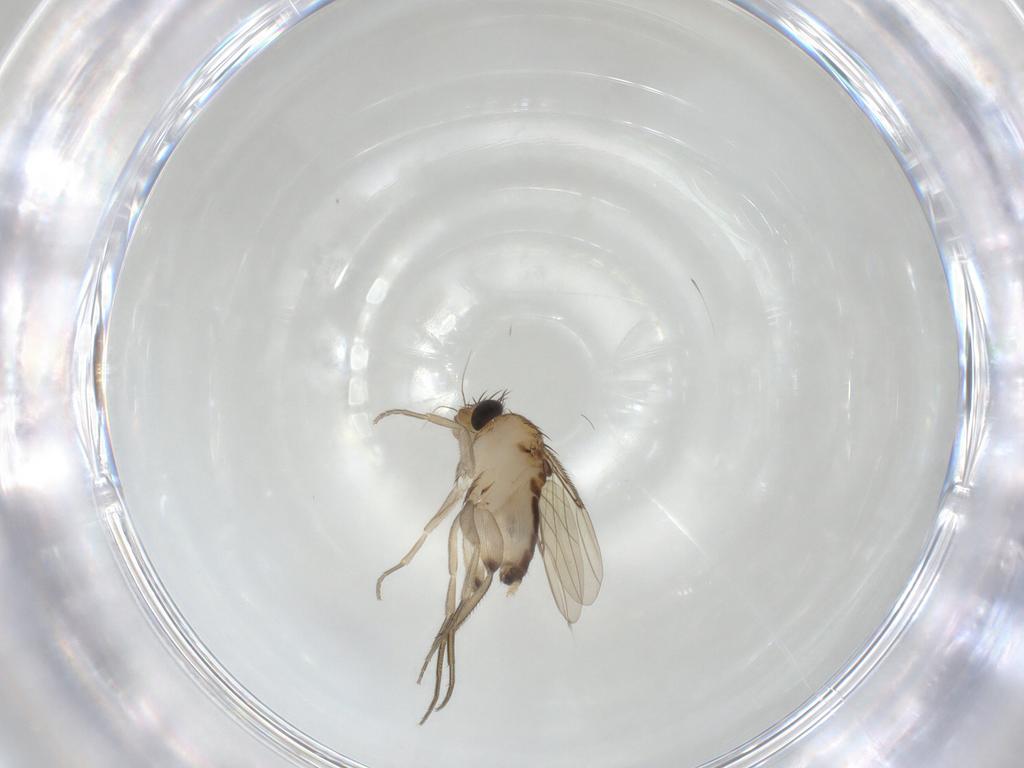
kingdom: Animalia
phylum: Arthropoda
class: Insecta
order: Diptera
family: Phoridae
